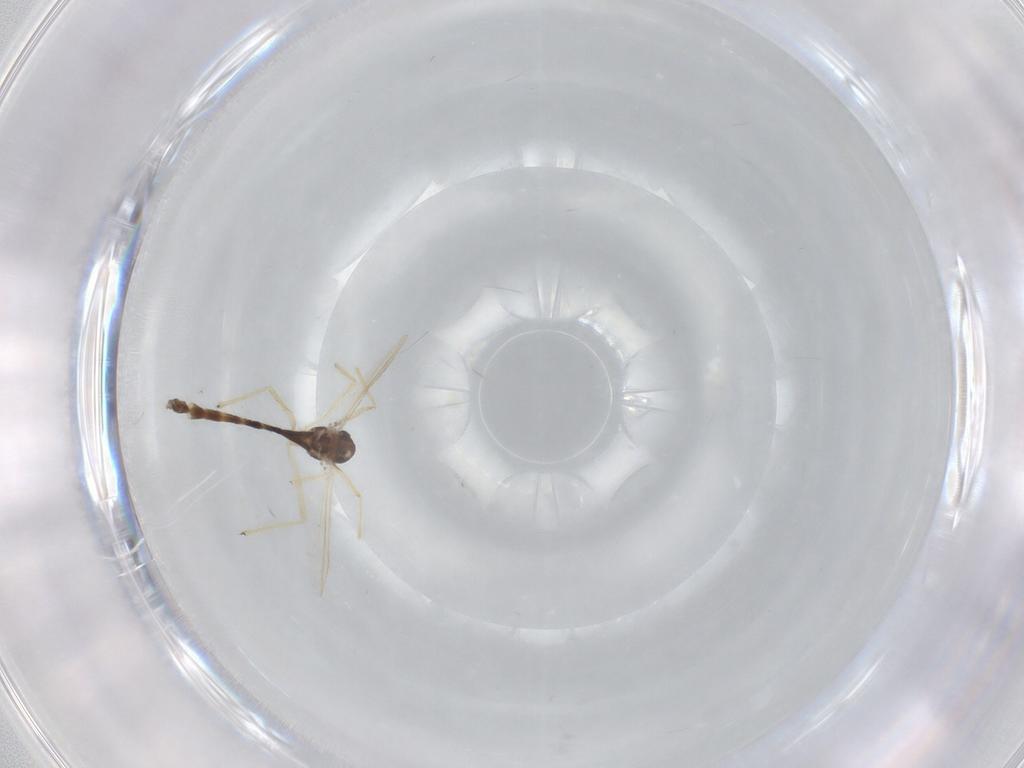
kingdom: Animalia
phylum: Arthropoda
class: Insecta
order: Diptera
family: Chironomidae
